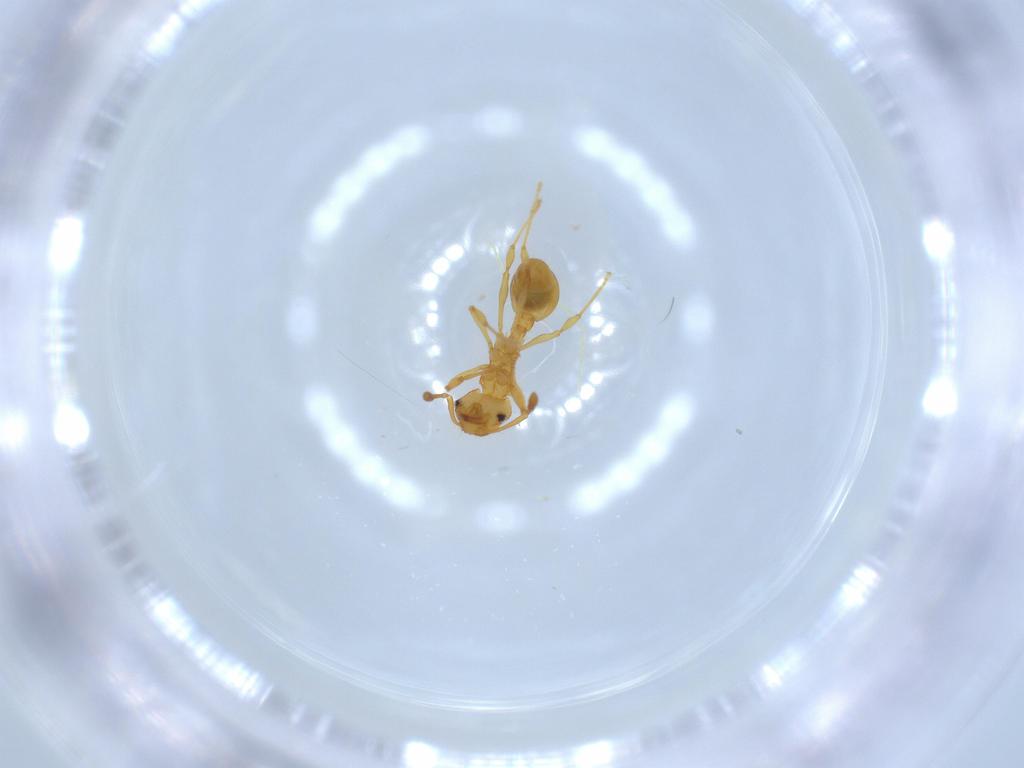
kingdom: Animalia
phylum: Arthropoda
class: Insecta
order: Hymenoptera
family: Formicidae
